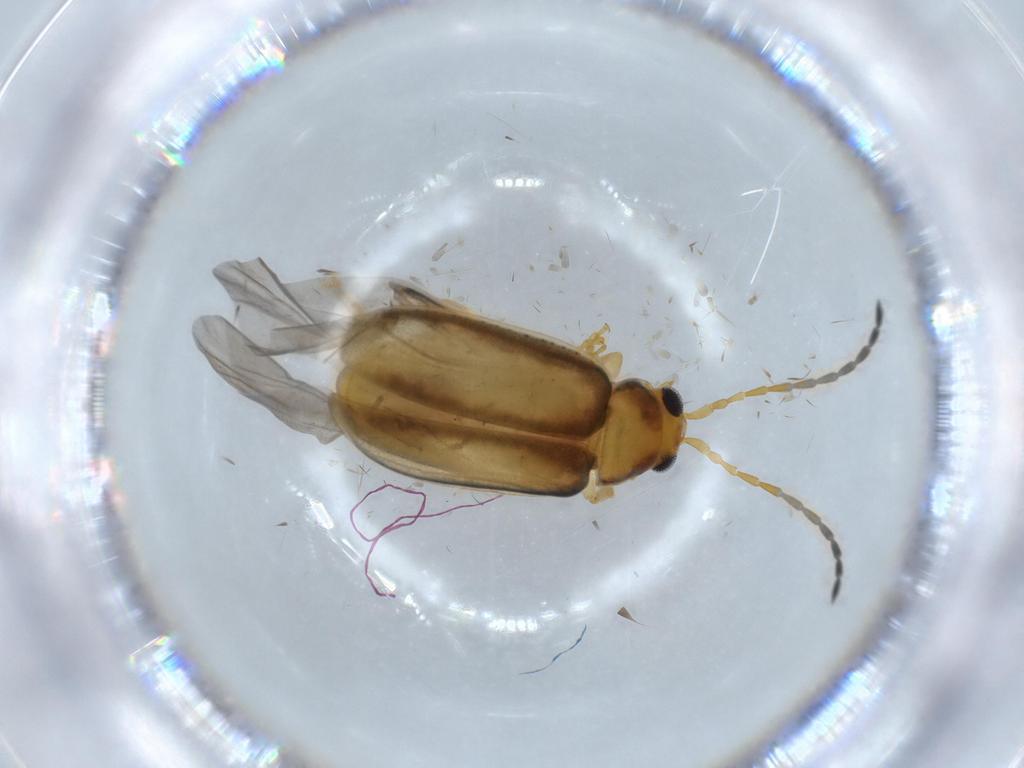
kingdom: Animalia
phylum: Arthropoda
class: Insecta
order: Coleoptera
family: Chrysomelidae
